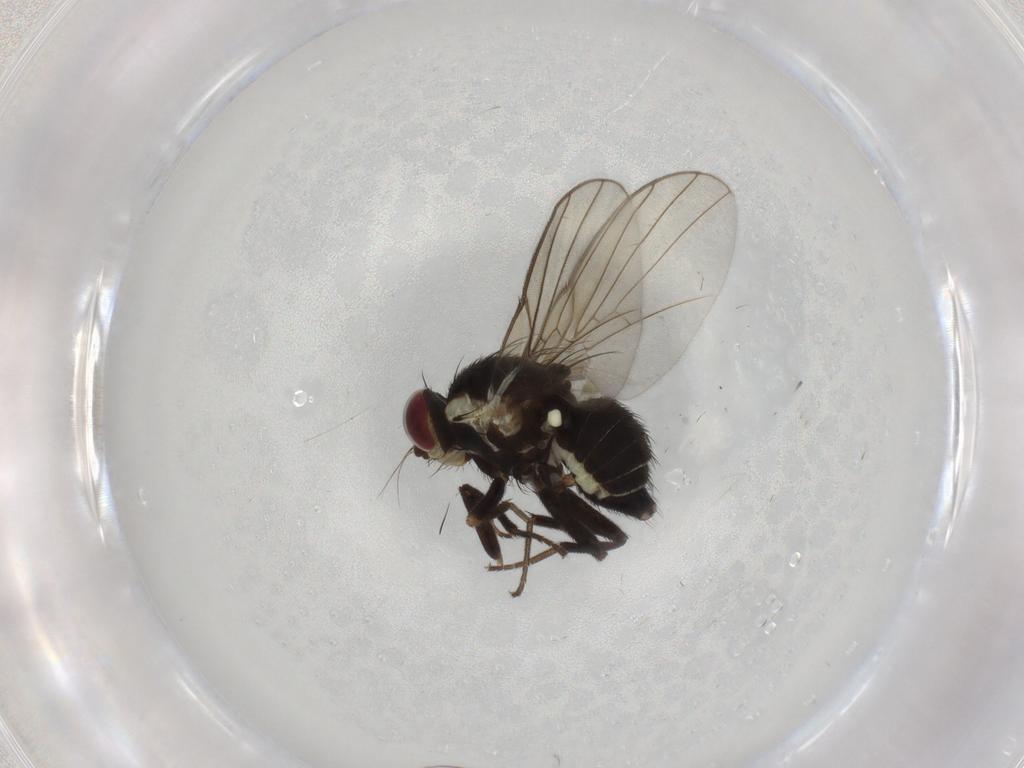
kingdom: Animalia
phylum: Arthropoda
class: Insecta
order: Diptera
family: Agromyzidae
